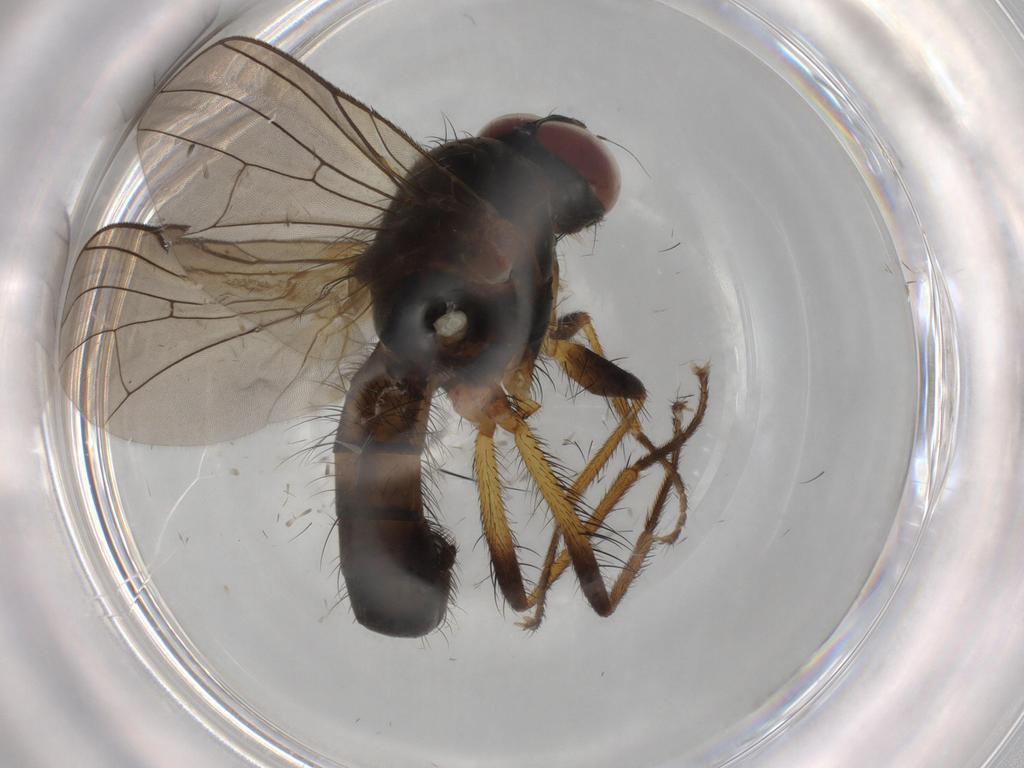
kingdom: Animalia
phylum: Arthropoda
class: Insecta
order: Diptera
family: Anthomyiidae
